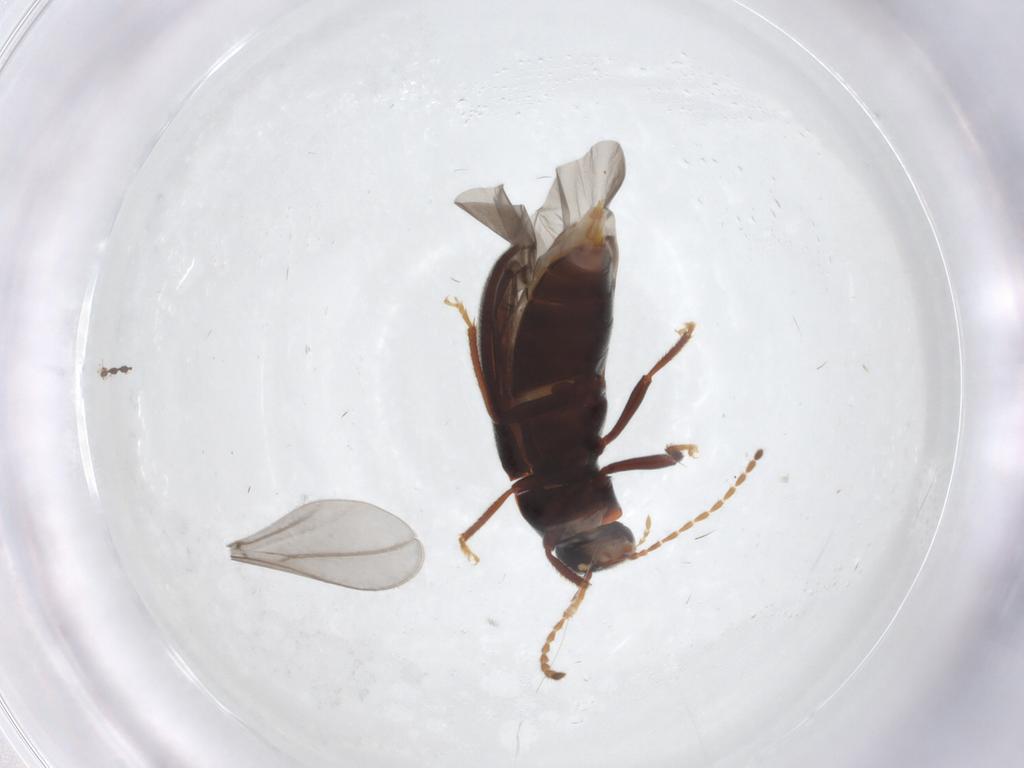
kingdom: Animalia
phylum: Arthropoda
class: Insecta
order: Coleoptera
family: Ptilodactylidae
